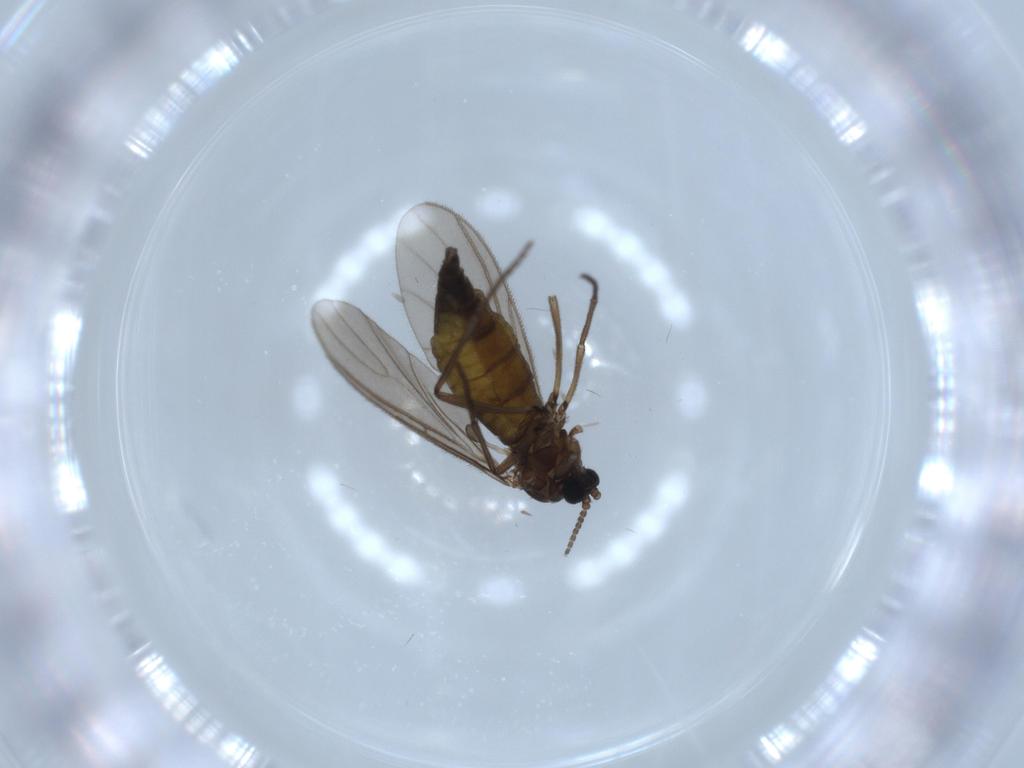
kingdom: Animalia
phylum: Arthropoda
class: Insecta
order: Diptera
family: Sciaridae
